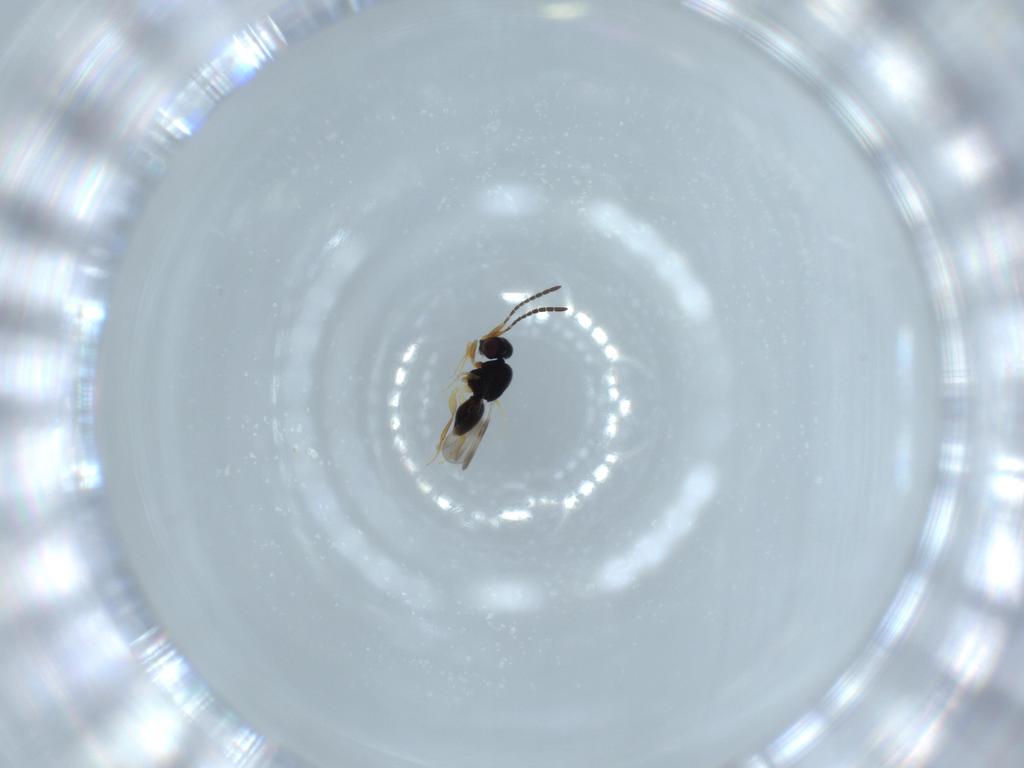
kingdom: Animalia
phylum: Arthropoda
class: Insecta
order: Hymenoptera
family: Ceraphronidae
